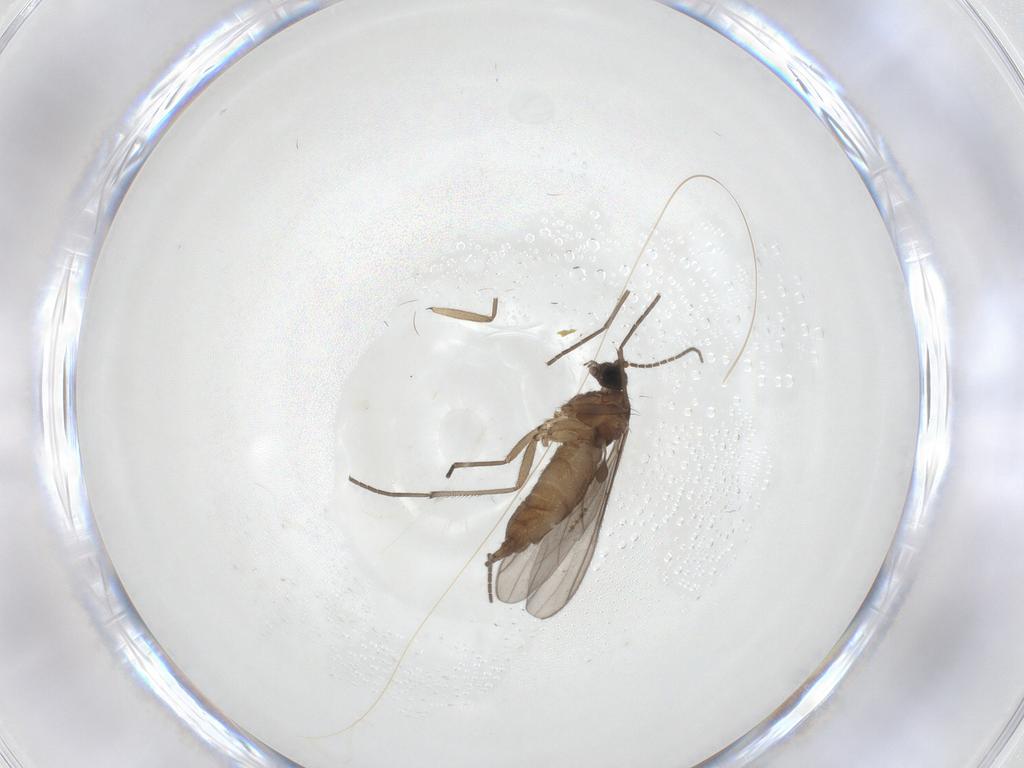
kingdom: Animalia
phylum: Arthropoda
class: Insecta
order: Diptera
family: Sciaridae
